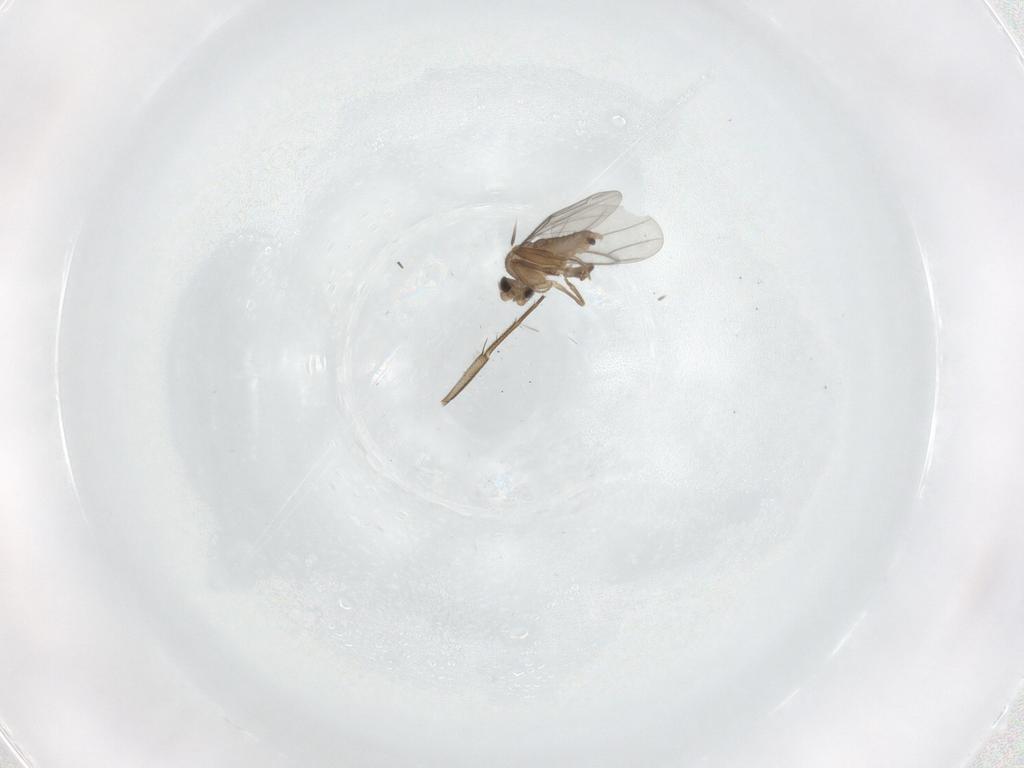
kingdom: Animalia
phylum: Arthropoda
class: Insecta
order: Diptera
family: Phoridae
